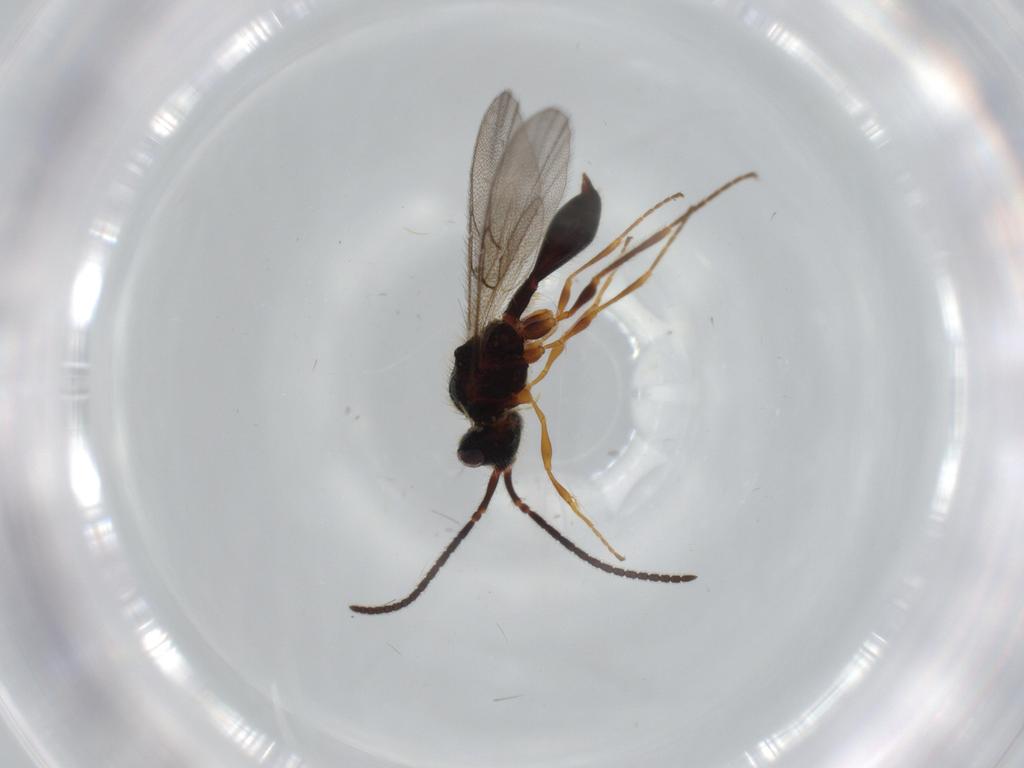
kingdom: Animalia
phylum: Arthropoda
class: Insecta
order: Hymenoptera
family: Diapriidae
